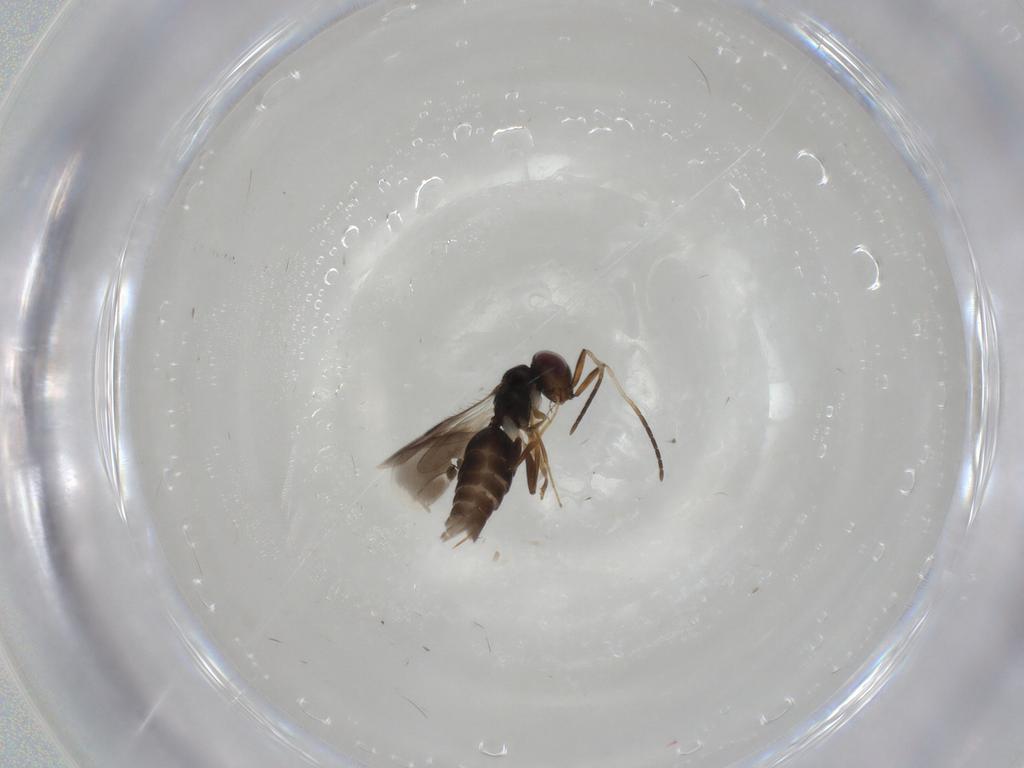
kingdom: Animalia
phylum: Arthropoda
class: Insecta
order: Hymenoptera
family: Megaspilidae
